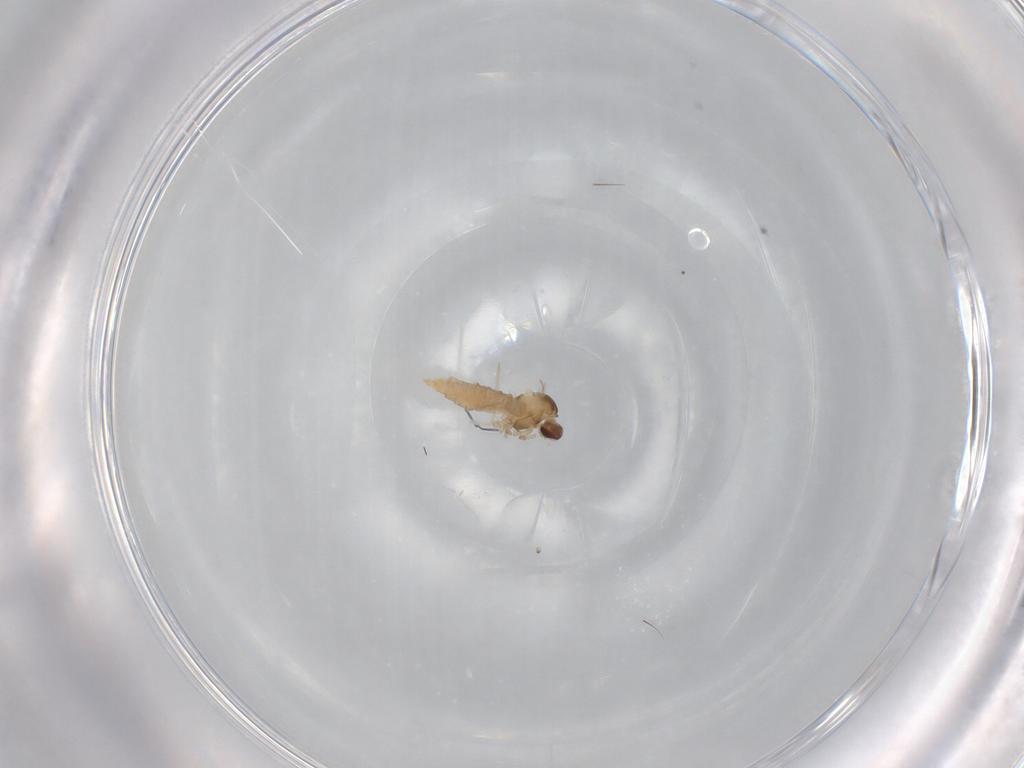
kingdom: Animalia
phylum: Arthropoda
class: Insecta
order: Diptera
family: Cecidomyiidae
